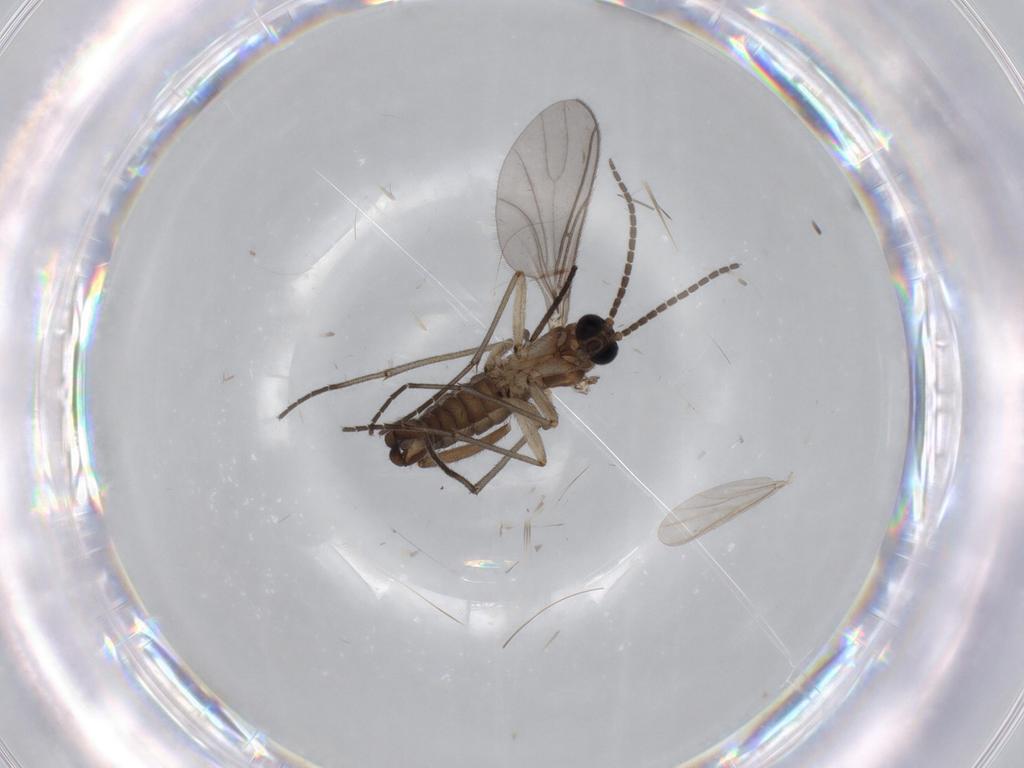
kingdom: Animalia
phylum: Arthropoda
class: Insecta
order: Diptera
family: Sciaridae
